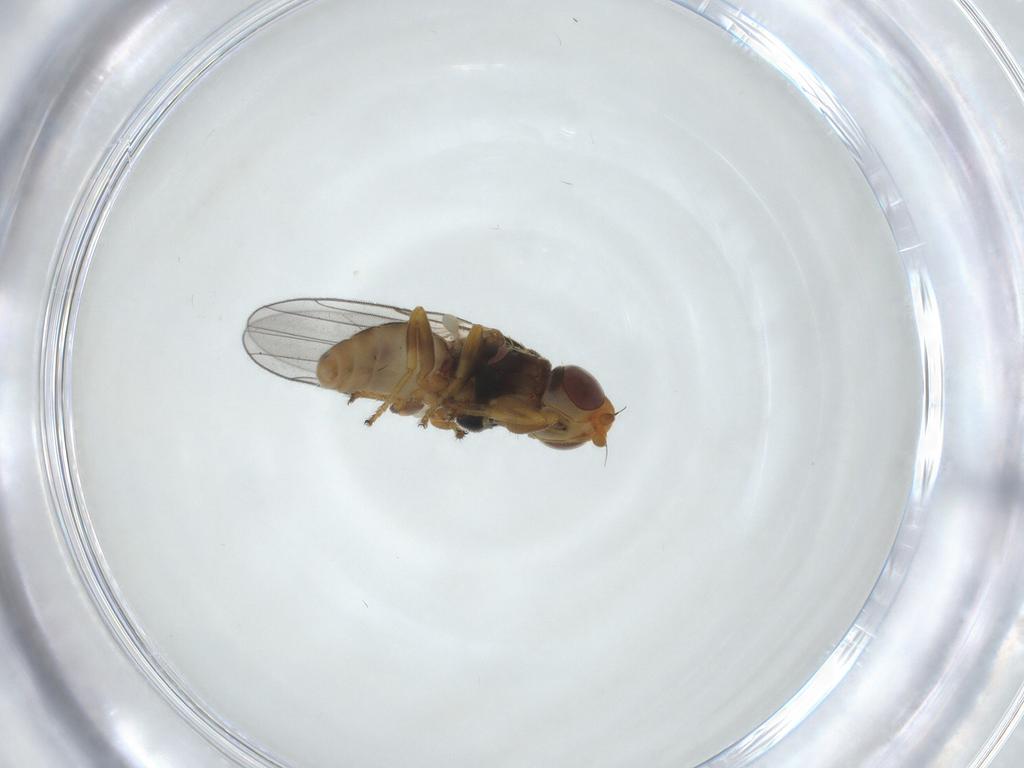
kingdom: Animalia
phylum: Arthropoda
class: Insecta
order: Diptera
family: Chloropidae
